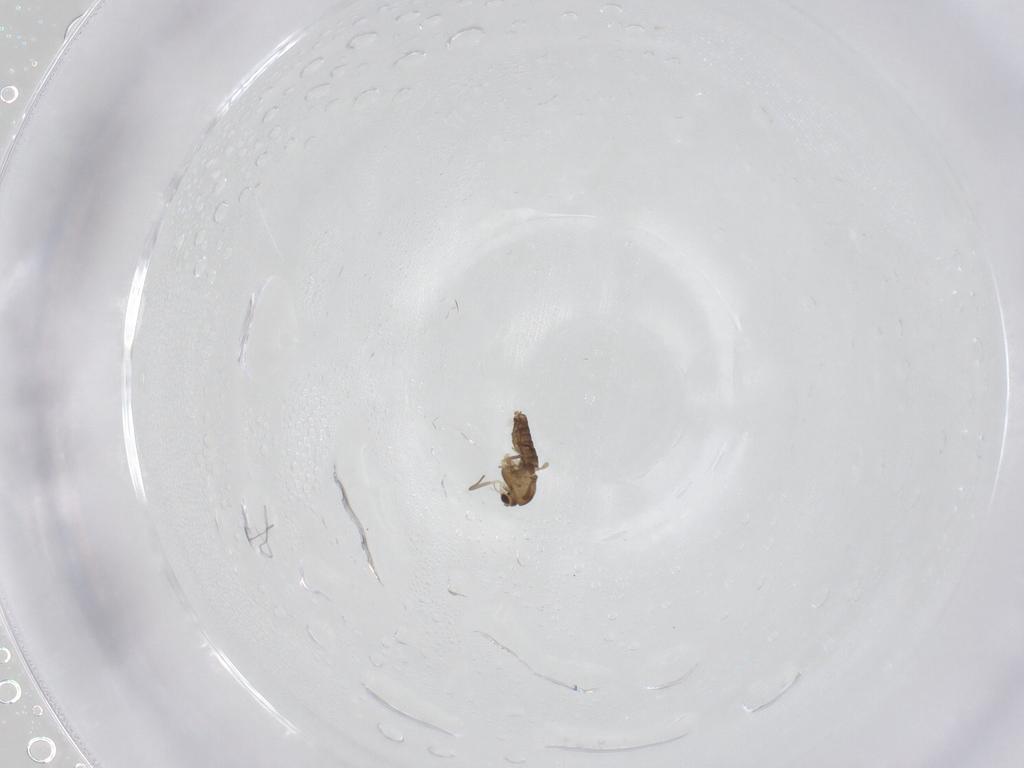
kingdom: Animalia
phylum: Arthropoda
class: Insecta
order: Diptera
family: Chironomidae
